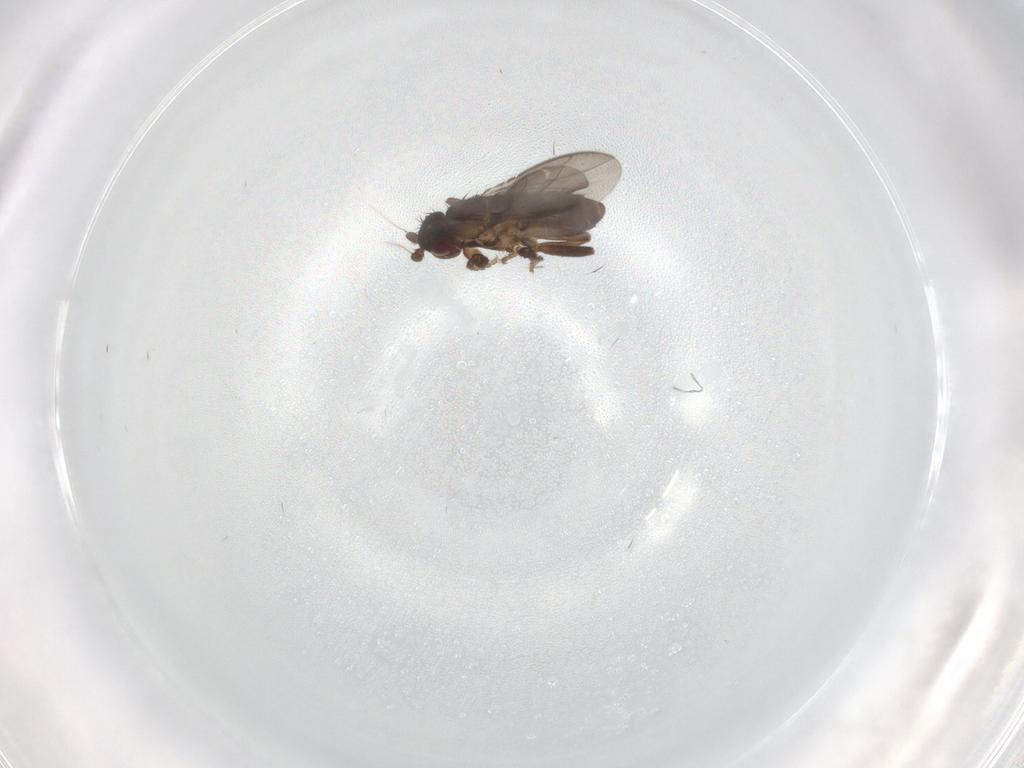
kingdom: Animalia
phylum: Arthropoda
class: Insecta
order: Diptera
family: Sphaeroceridae
